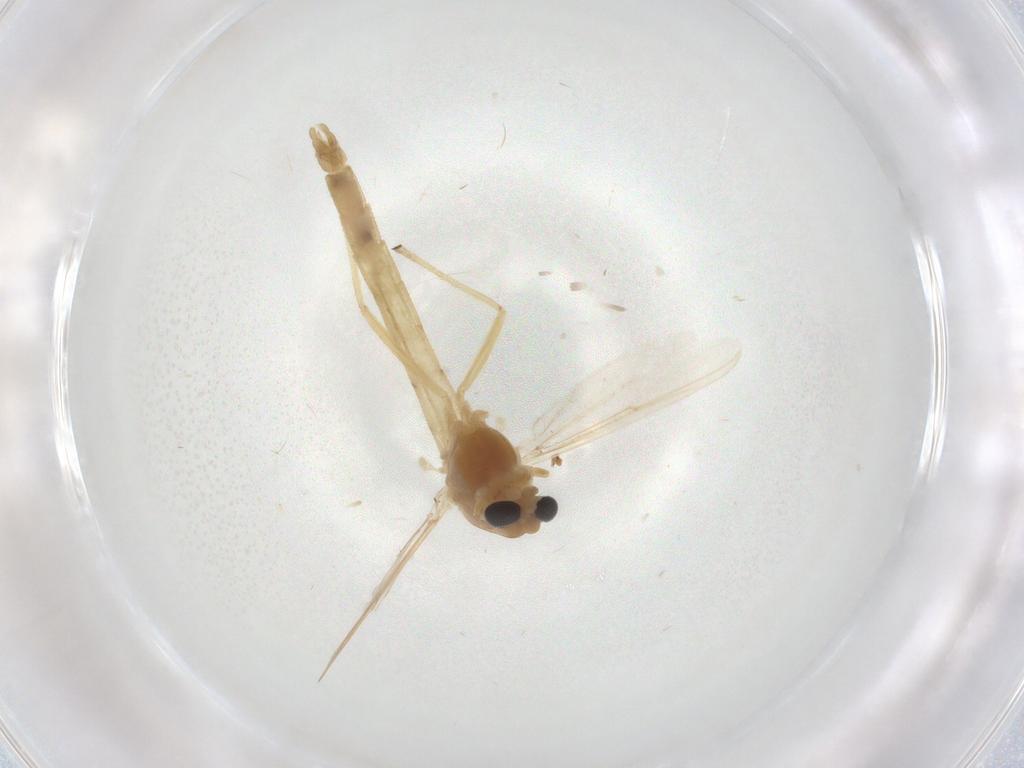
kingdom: Animalia
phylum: Arthropoda
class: Insecta
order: Diptera
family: Chironomidae
